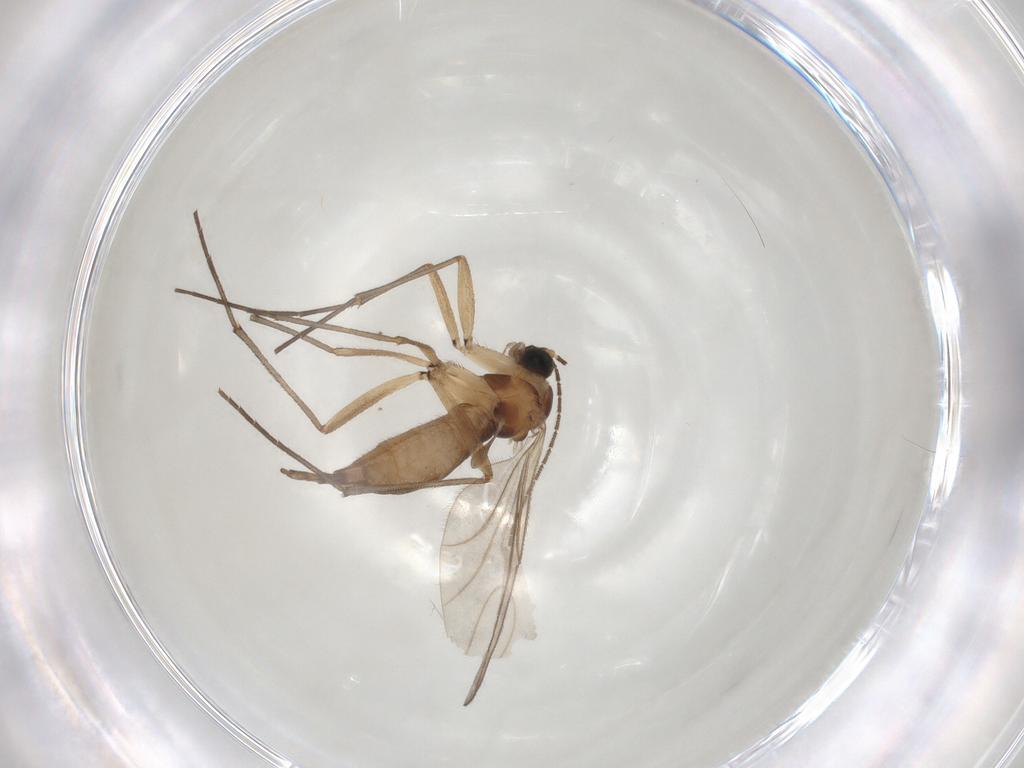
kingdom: Animalia
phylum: Arthropoda
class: Insecta
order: Diptera
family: Sciaridae
